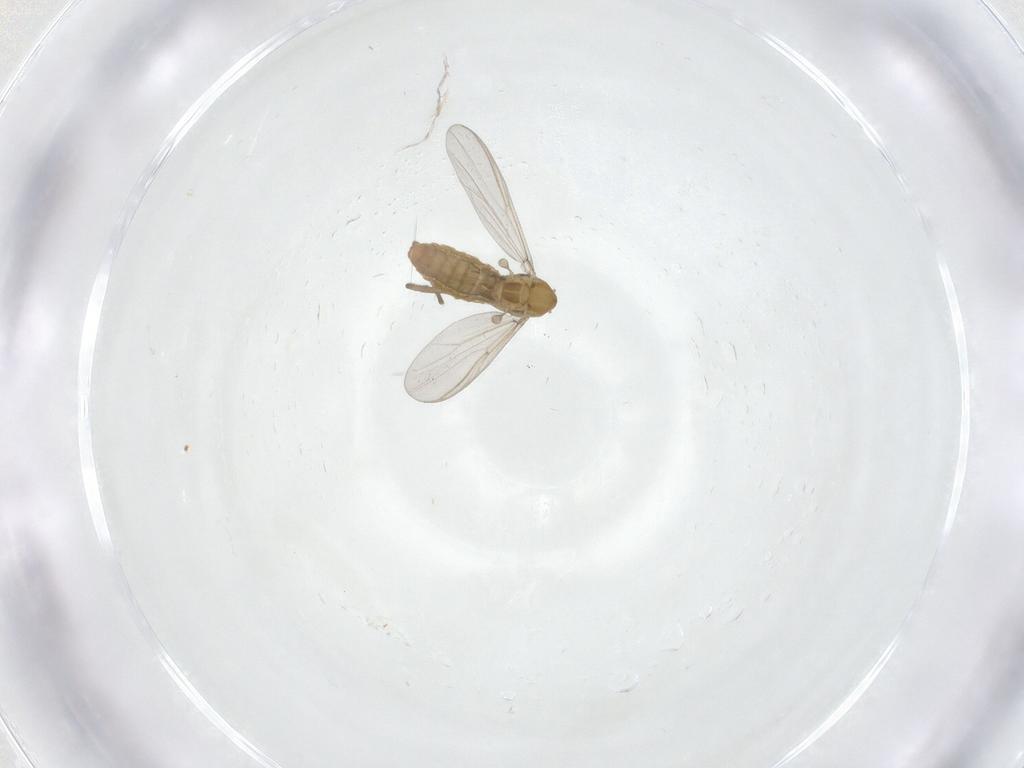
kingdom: Animalia
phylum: Arthropoda
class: Insecta
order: Diptera
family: Chironomidae
